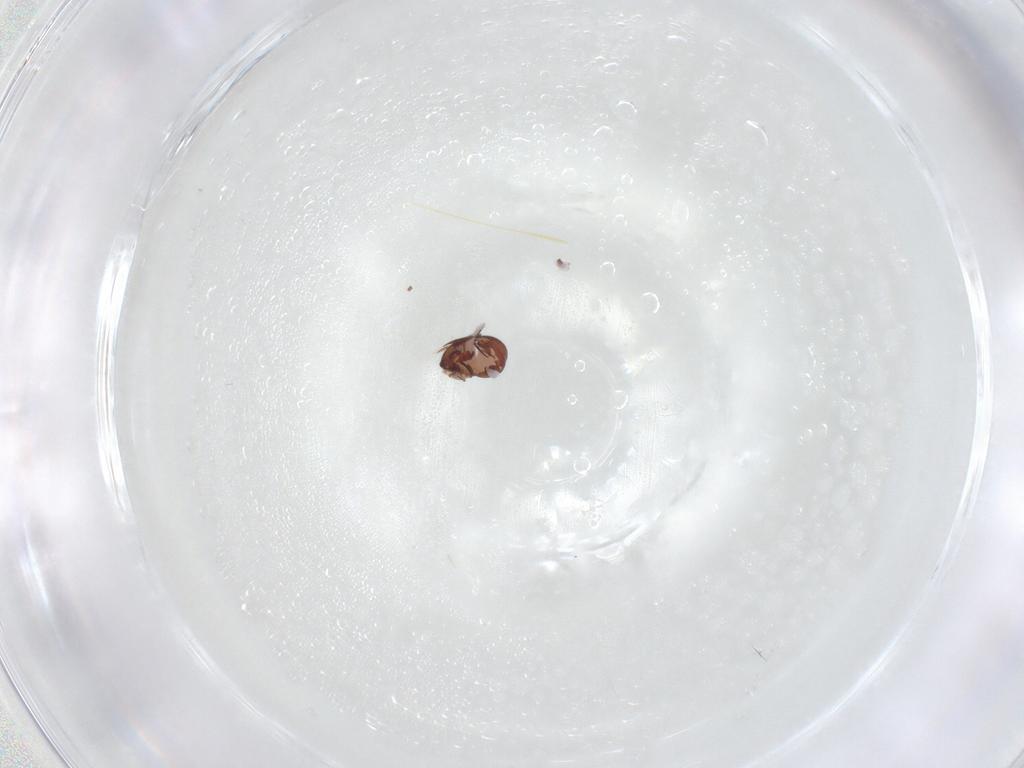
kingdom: Animalia
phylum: Arthropoda
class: Arachnida
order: Sarcoptiformes
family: Galumnidae
